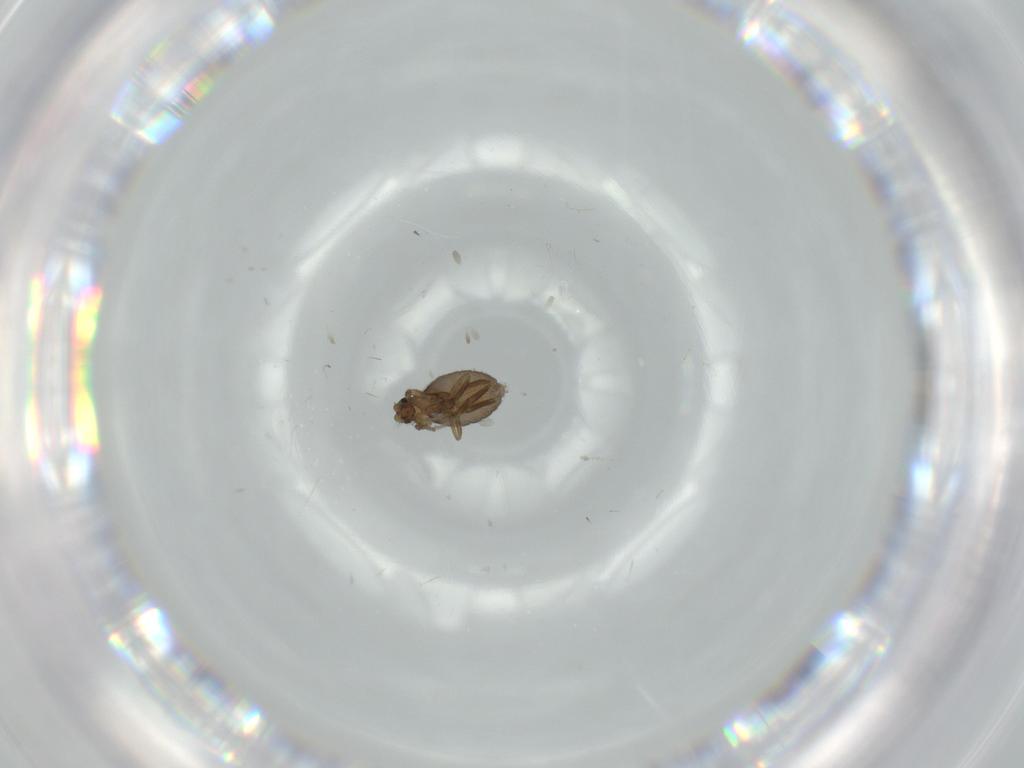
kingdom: Animalia
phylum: Arthropoda
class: Insecta
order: Diptera
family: Phoridae
